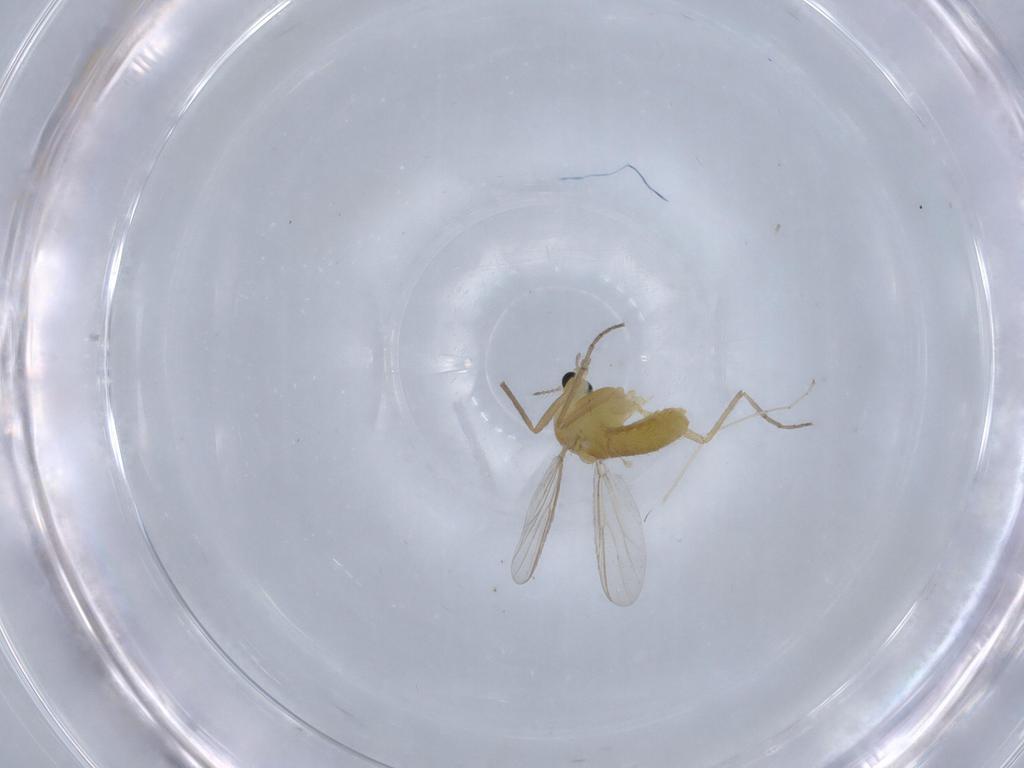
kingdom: Animalia
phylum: Arthropoda
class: Insecta
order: Diptera
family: Chironomidae
